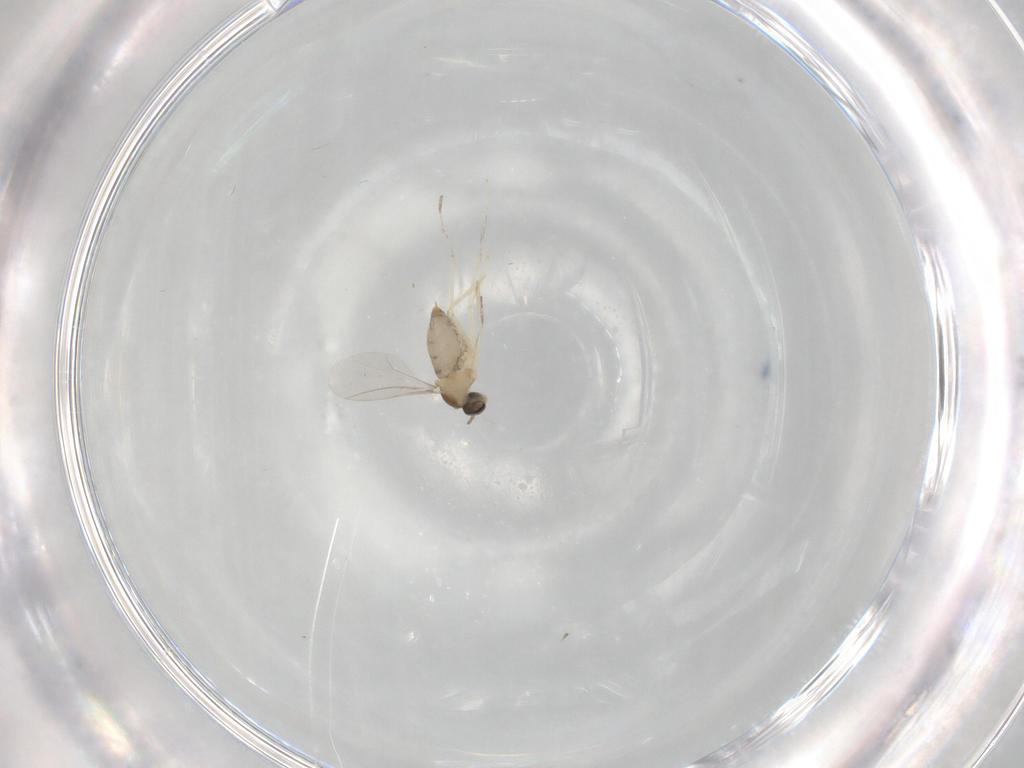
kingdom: Animalia
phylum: Arthropoda
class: Insecta
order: Diptera
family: Cecidomyiidae
